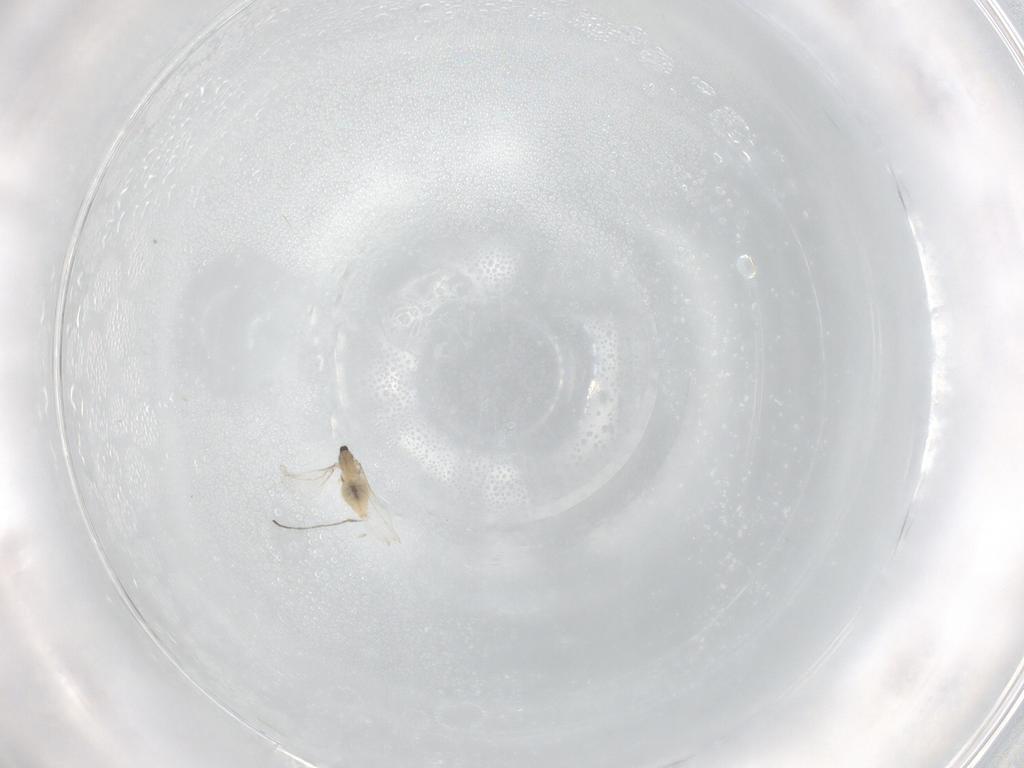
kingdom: Animalia
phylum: Arthropoda
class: Insecta
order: Diptera
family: Cecidomyiidae
